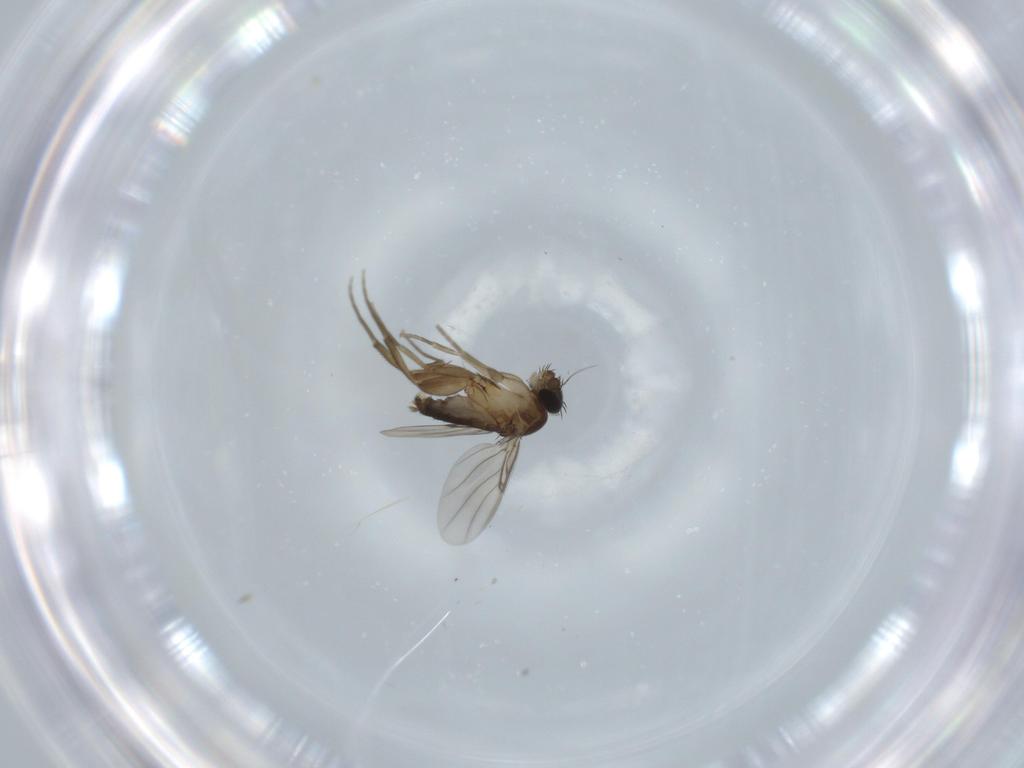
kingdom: Animalia
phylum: Arthropoda
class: Insecta
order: Diptera
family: Phoridae
